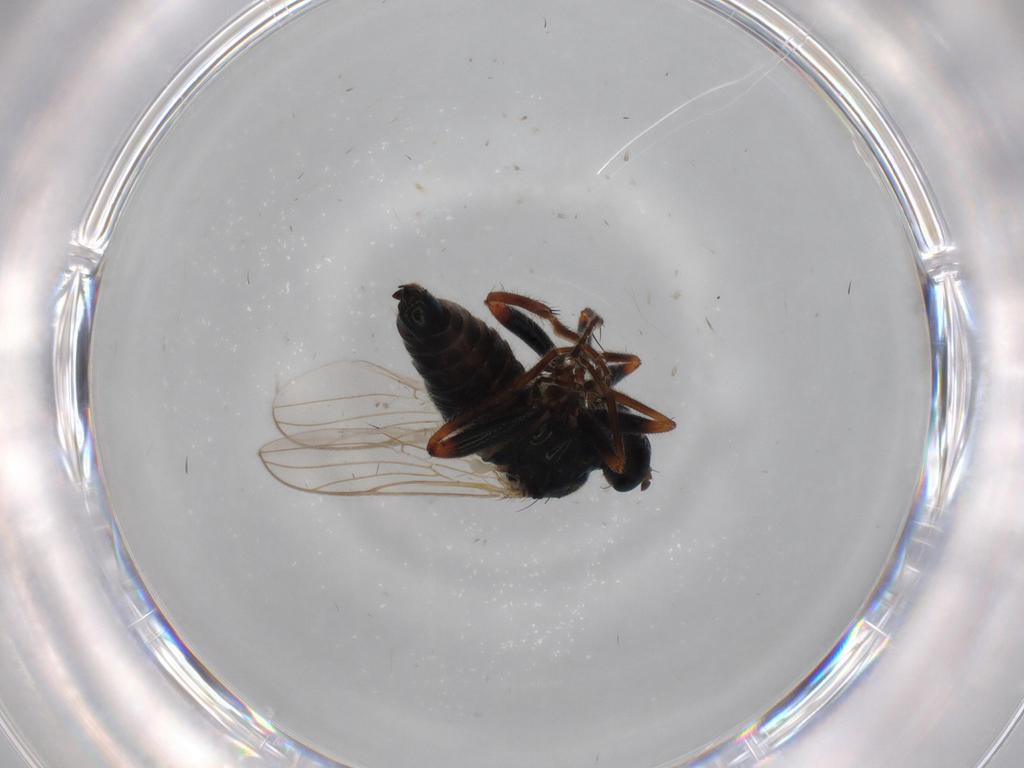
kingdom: Animalia
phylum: Arthropoda
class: Insecta
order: Diptera
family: Hybotidae
